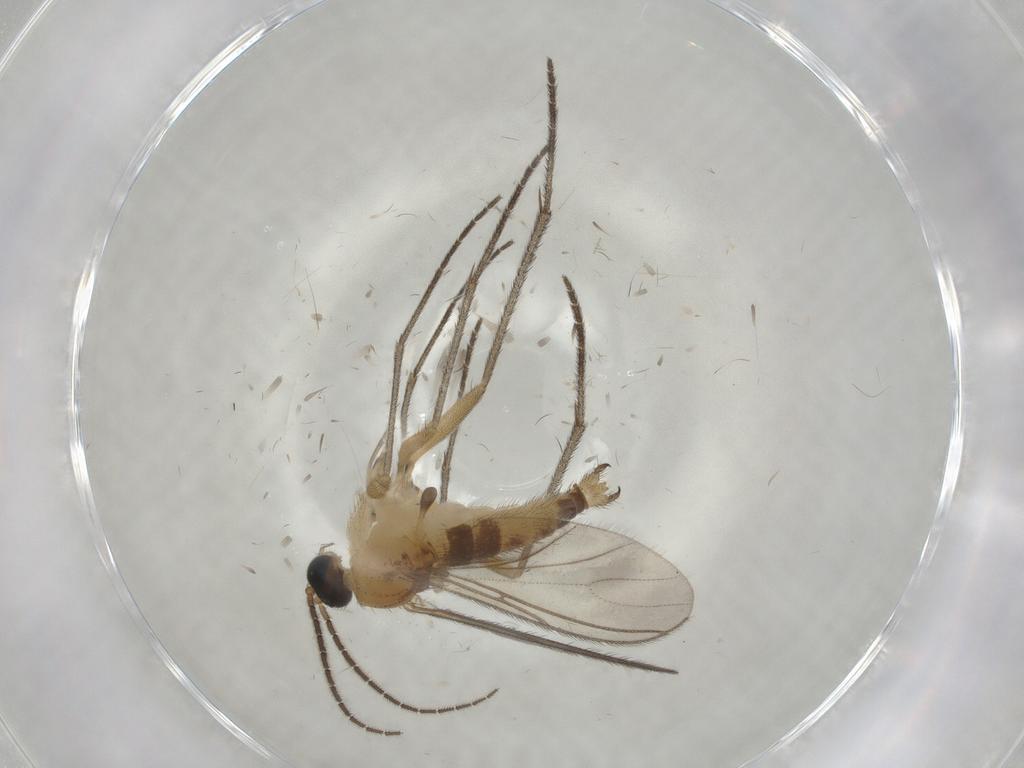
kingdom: Animalia
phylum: Arthropoda
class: Insecta
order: Diptera
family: Sciaridae
